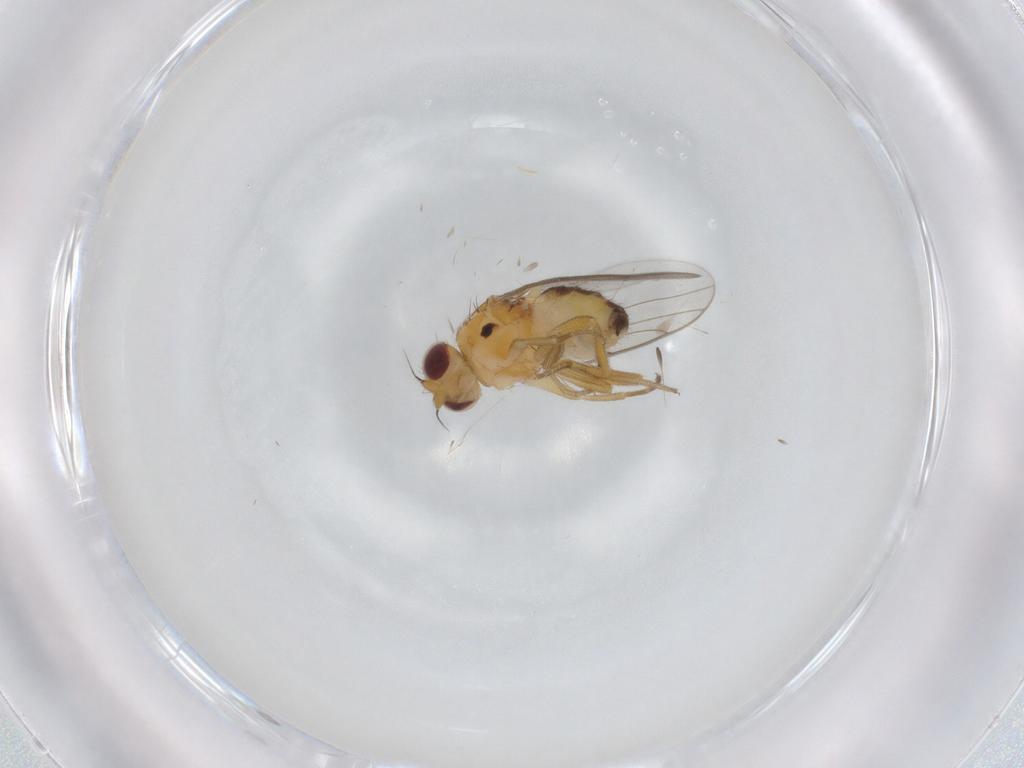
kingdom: Animalia
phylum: Arthropoda
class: Insecta
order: Diptera
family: Chloropidae
